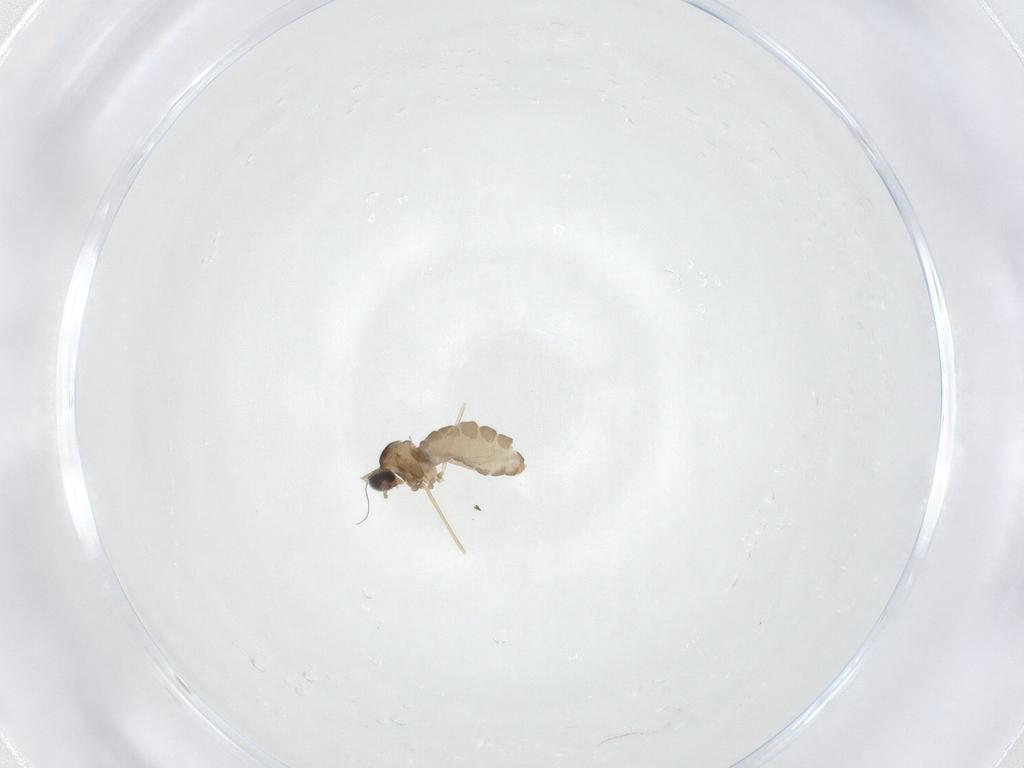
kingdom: Animalia
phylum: Arthropoda
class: Insecta
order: Diptera
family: Cecidomyiidae
